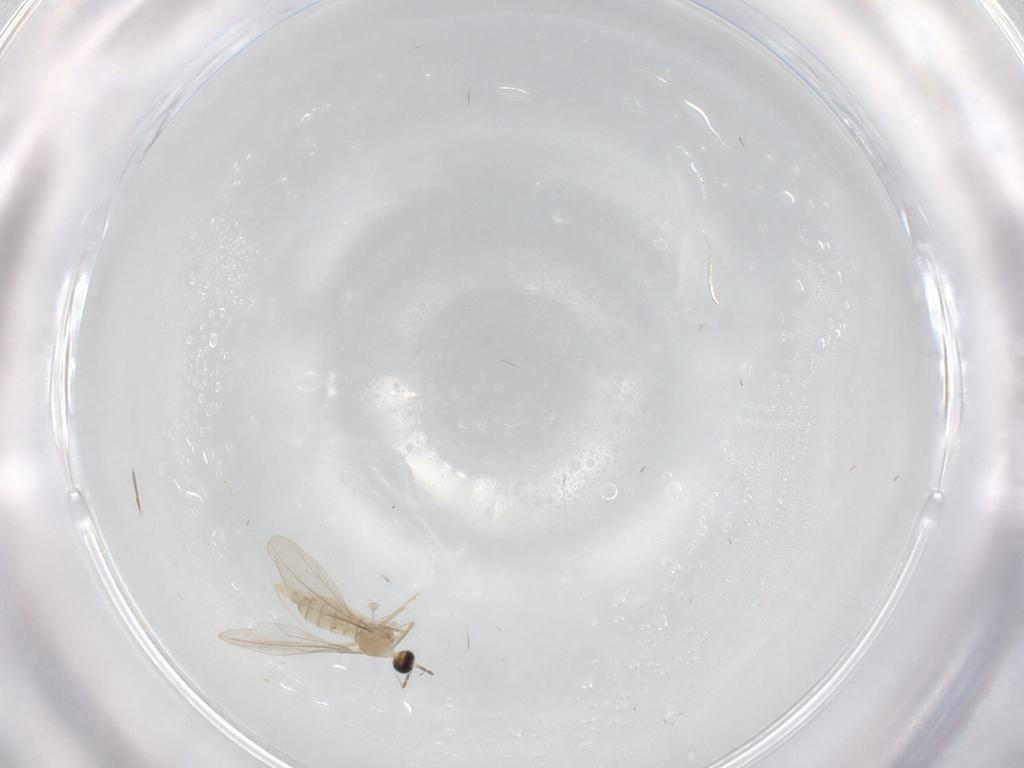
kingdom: Animalia
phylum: Arthropoda
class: Insecta
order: Diptera
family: Cecidomyiidae
